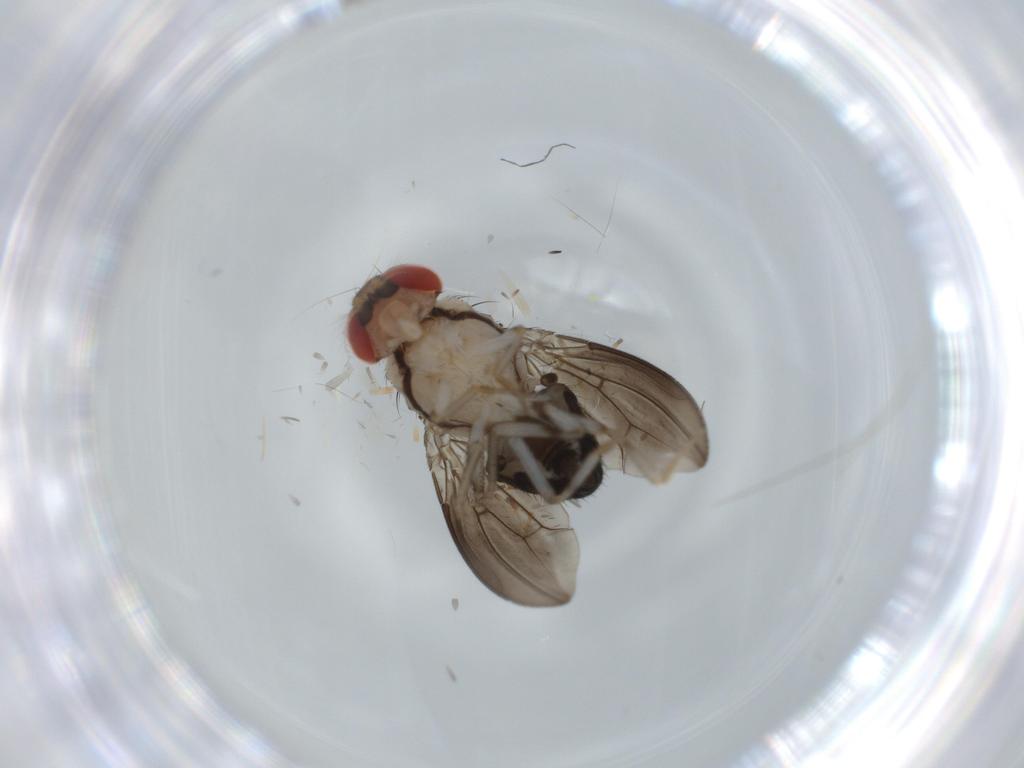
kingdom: Animalia
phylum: Arthropoda
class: Insecta
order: Diptera
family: Drosophilidae
